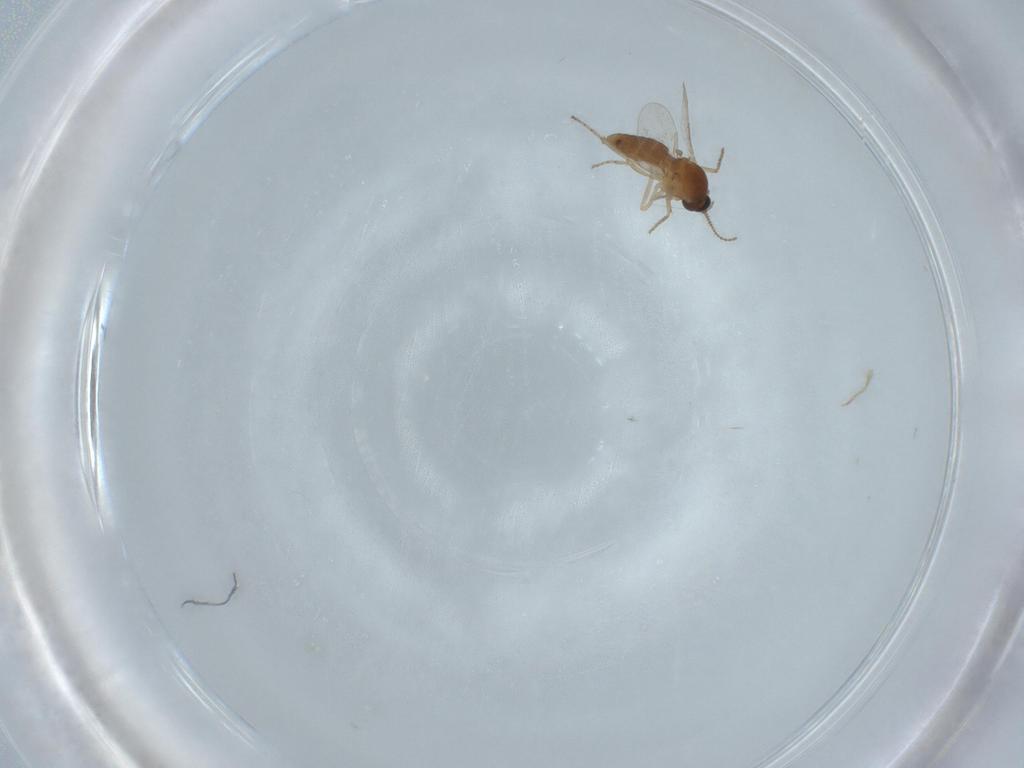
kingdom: Animalia
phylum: Arthropoda
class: Insecta
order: Diptera
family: Ceratopogonidae
